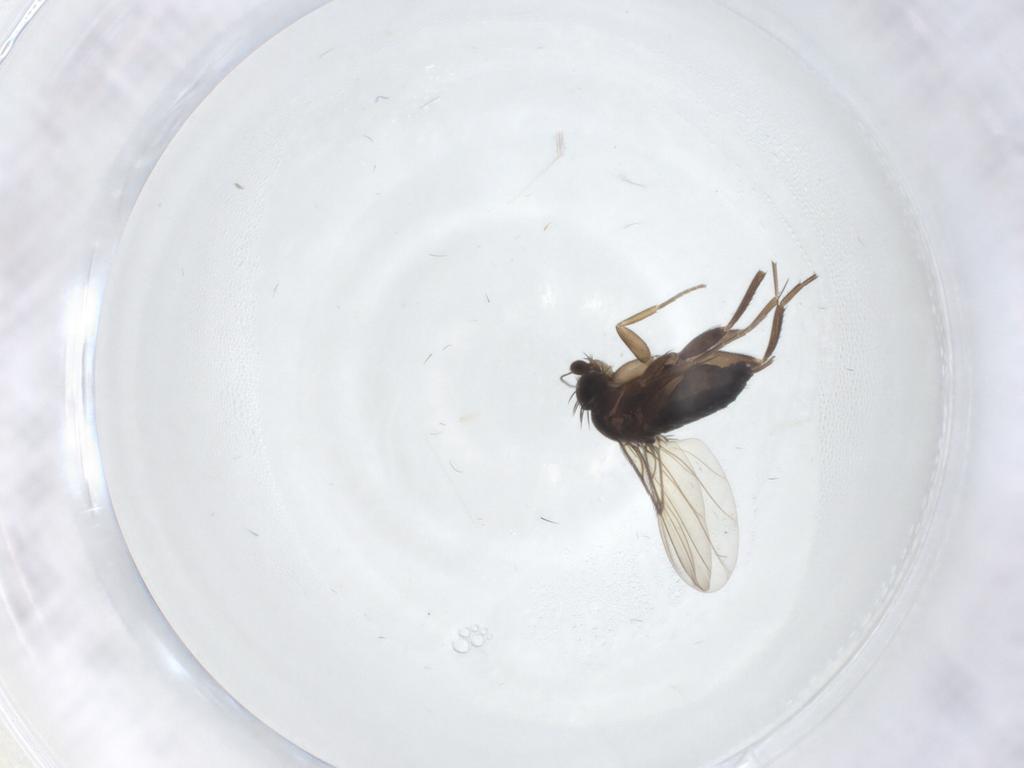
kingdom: Animalia
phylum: Arthropoda
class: Insecta
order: Diptera
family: Phoridae
